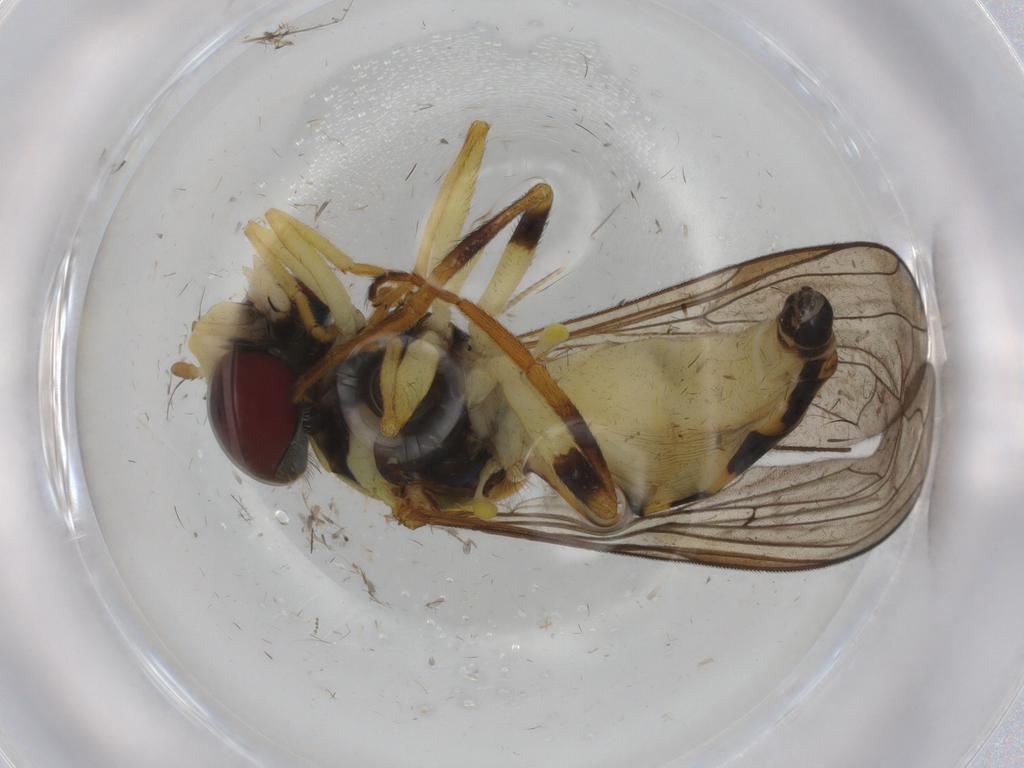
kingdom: Animalia
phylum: Arthropoda
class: Insecta
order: Diptera
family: Syrphidae
